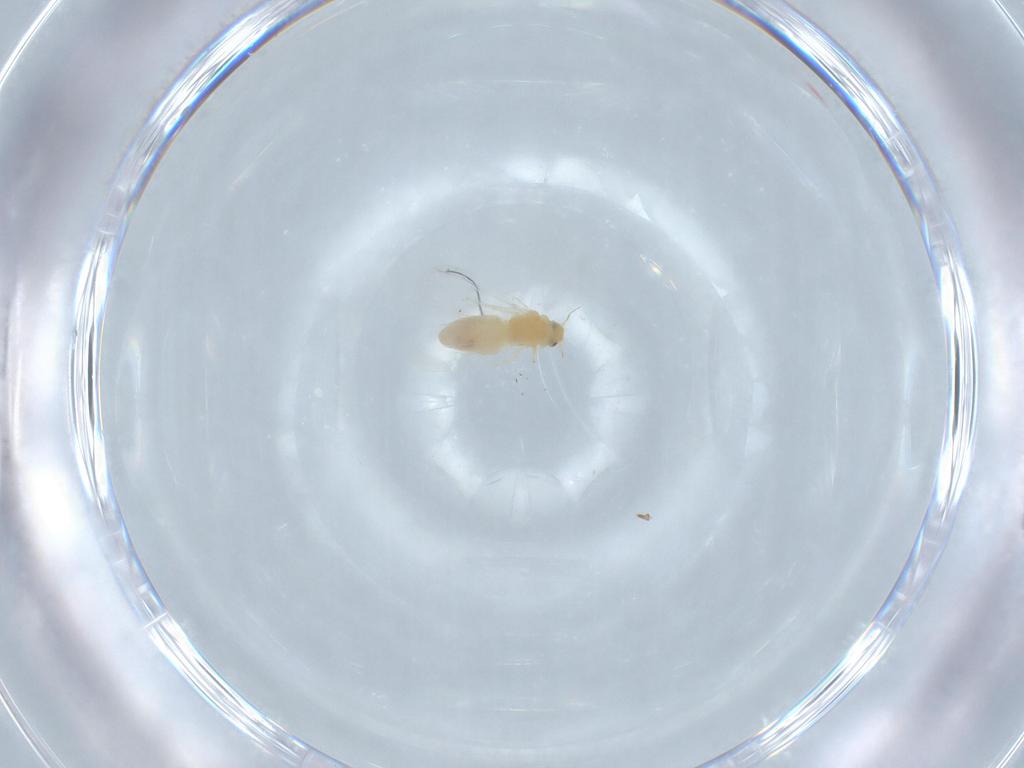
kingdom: Animalia
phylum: Arthropoda
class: Insecta
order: Hemiptera
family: Aleyrodidae
